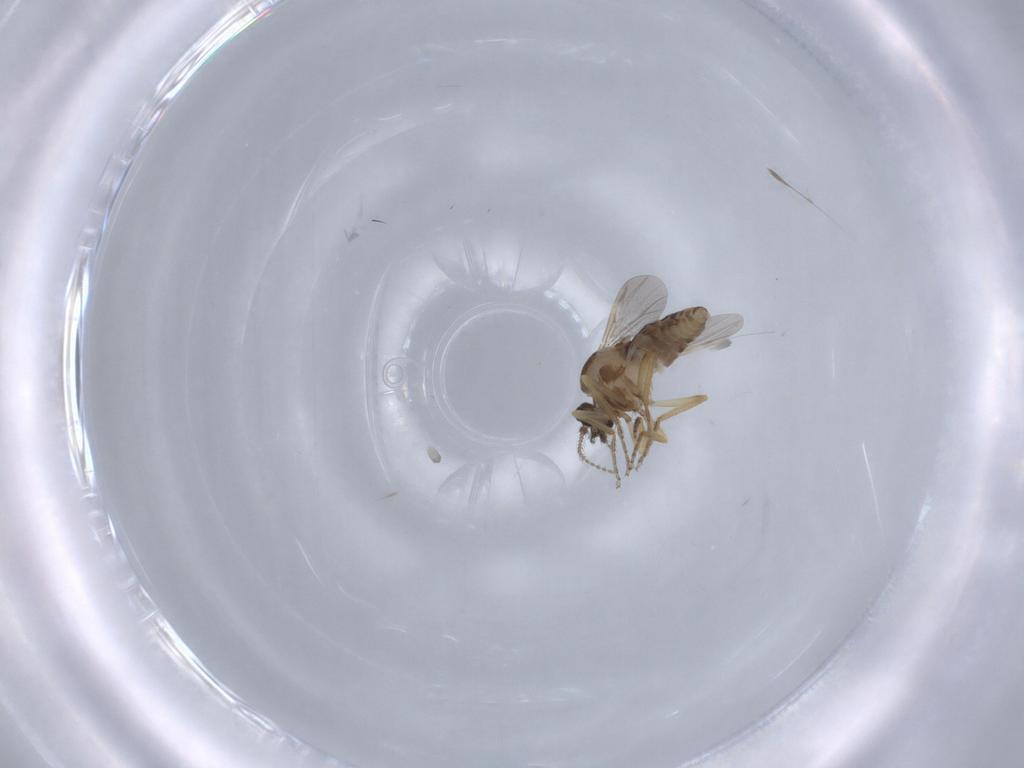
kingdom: Animalia
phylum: Arthropoda
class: Insecta
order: Diptera
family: Ceratopogonidae
